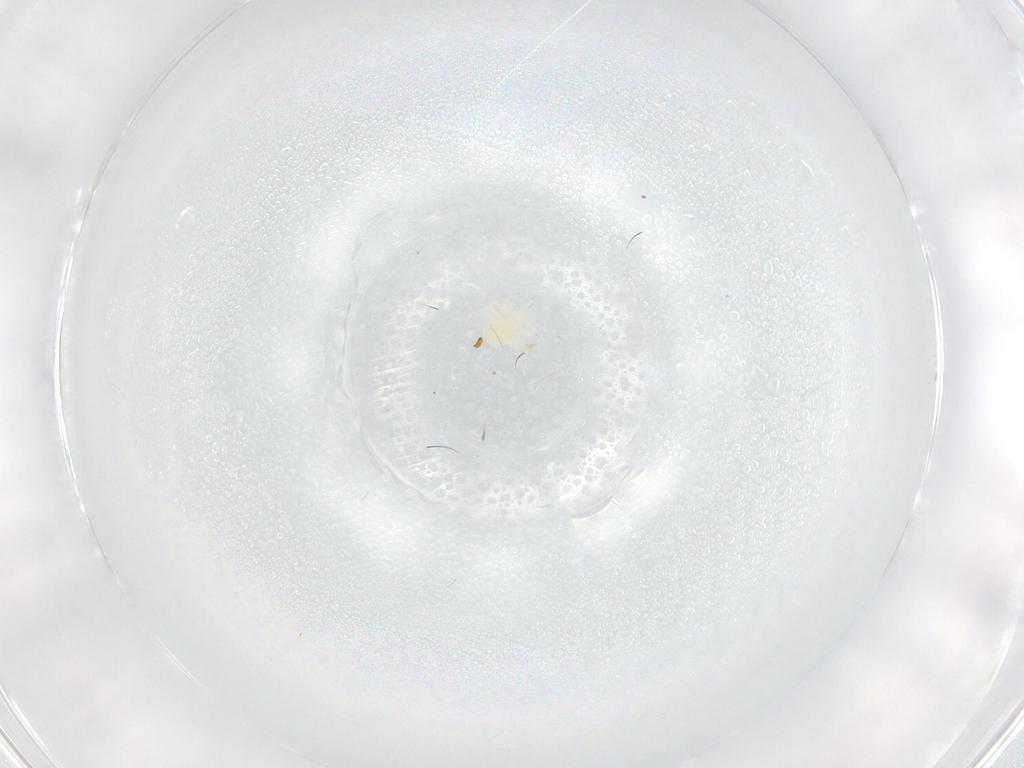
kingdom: Animalia
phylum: Arthropoda
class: Arachnida
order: Trombidiformes
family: Anystidae
